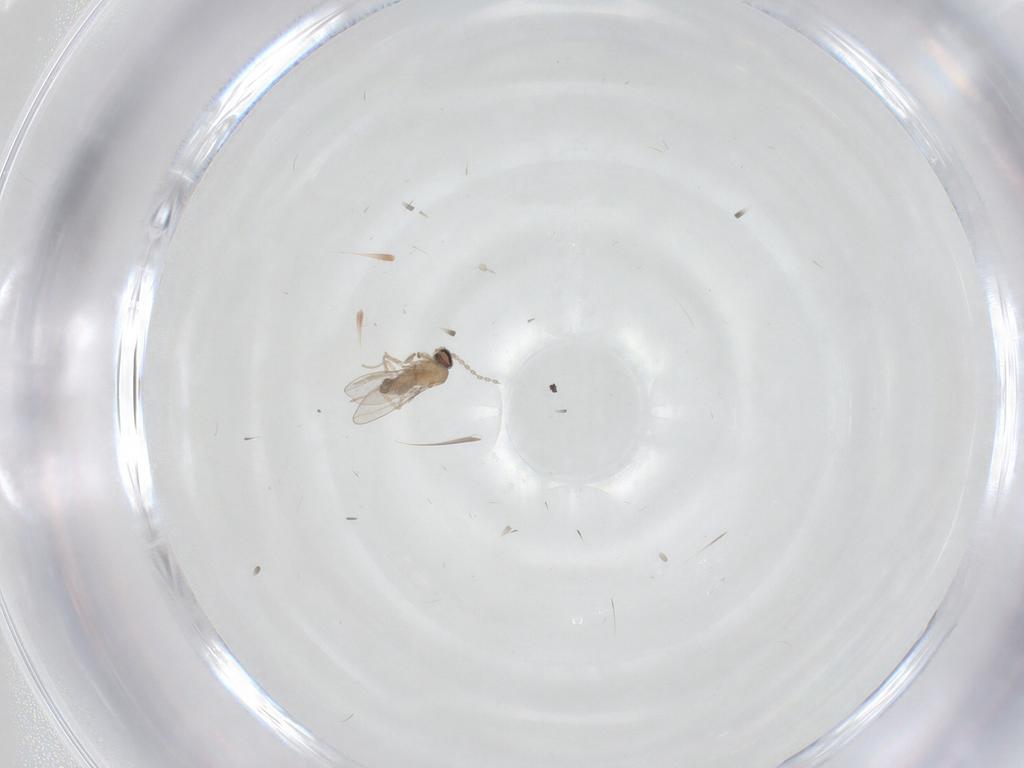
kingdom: Animalia
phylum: Arthropoda
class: Insecta
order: Diptera
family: Cecidomyiidae
